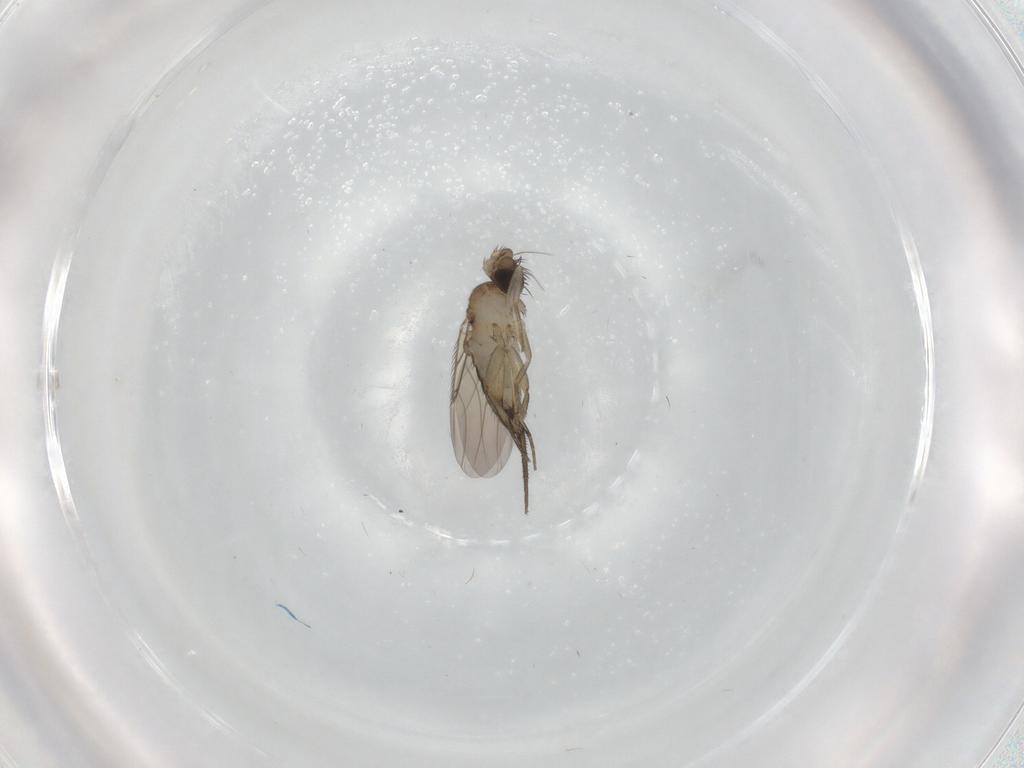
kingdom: Animalia
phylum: Arthropoda
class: Insecta
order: Diptera
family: Phoridae
